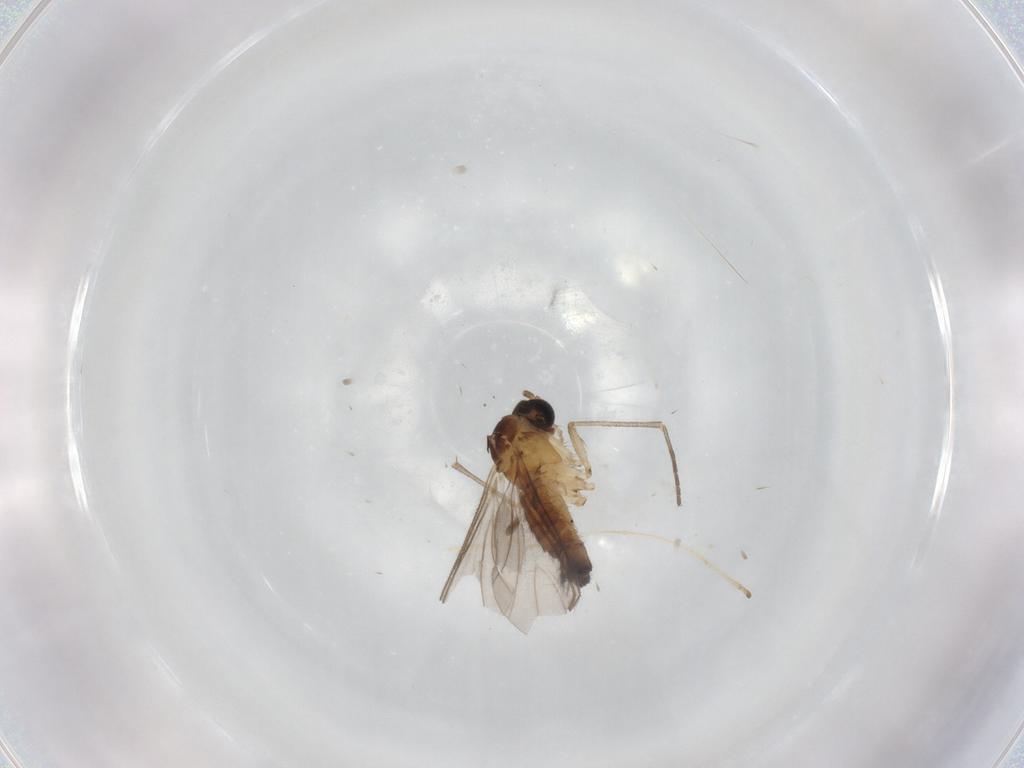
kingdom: Animalia
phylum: Arthropoda
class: Insecta
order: Diptera
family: Sciaridae
